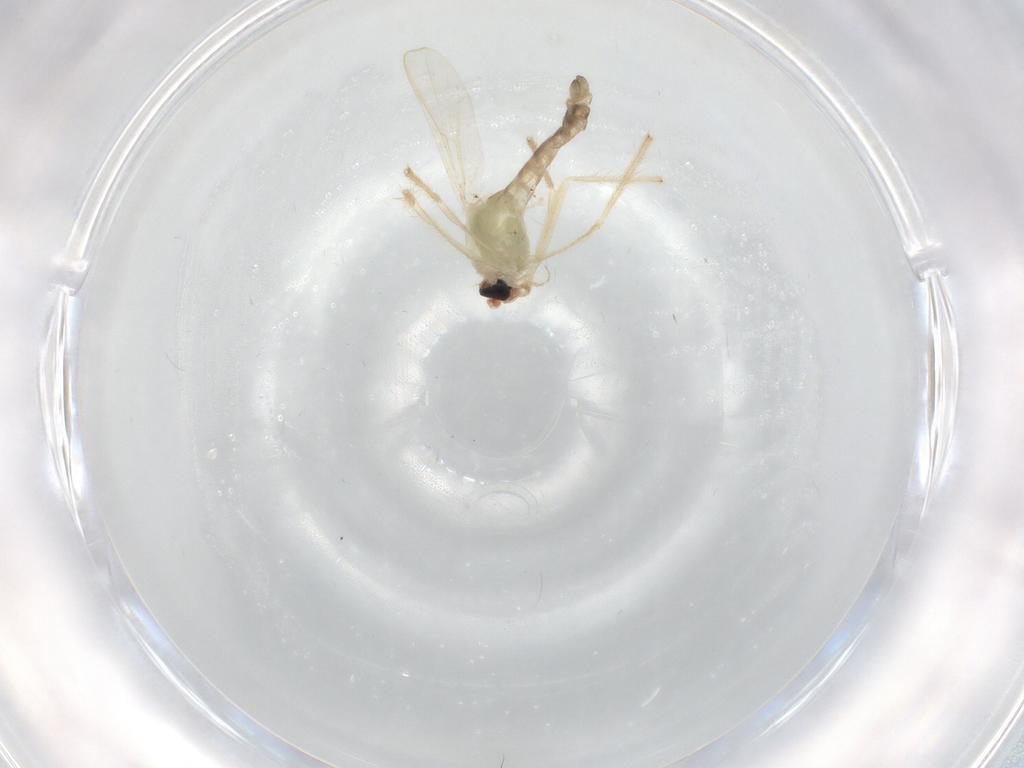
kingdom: Animalia
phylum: Arthropoda
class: Insecta
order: Diptera
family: Chironomidae
